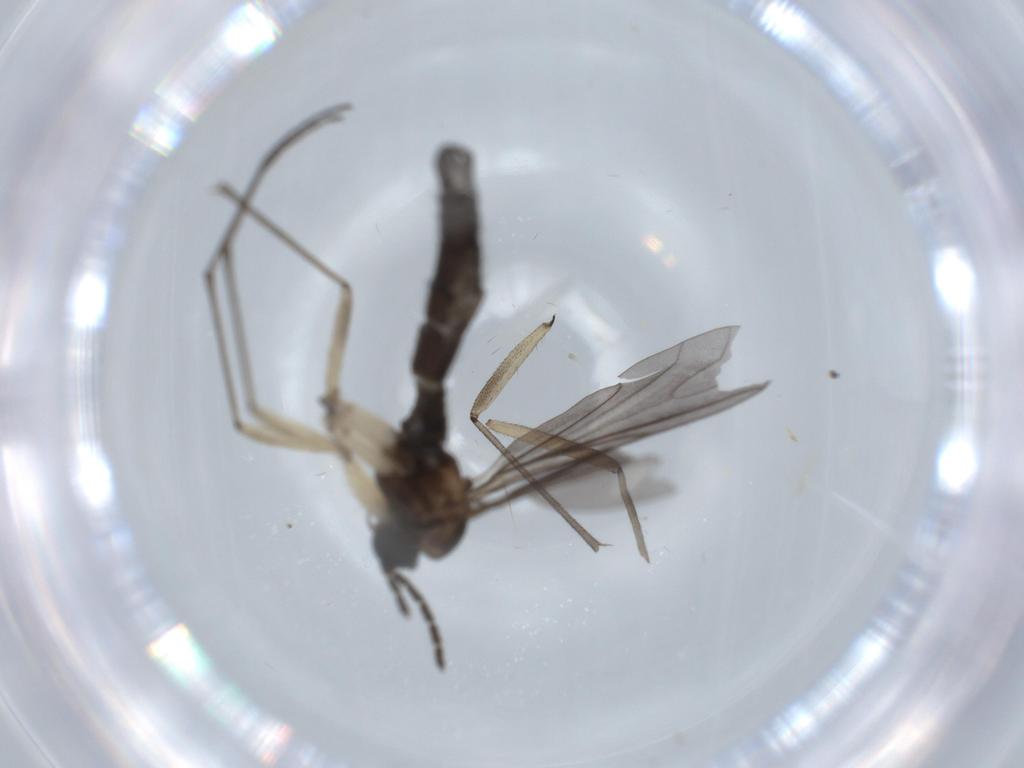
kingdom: Animalia
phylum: Arthropoda
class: Insecta
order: Diptera
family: Sciaridae
